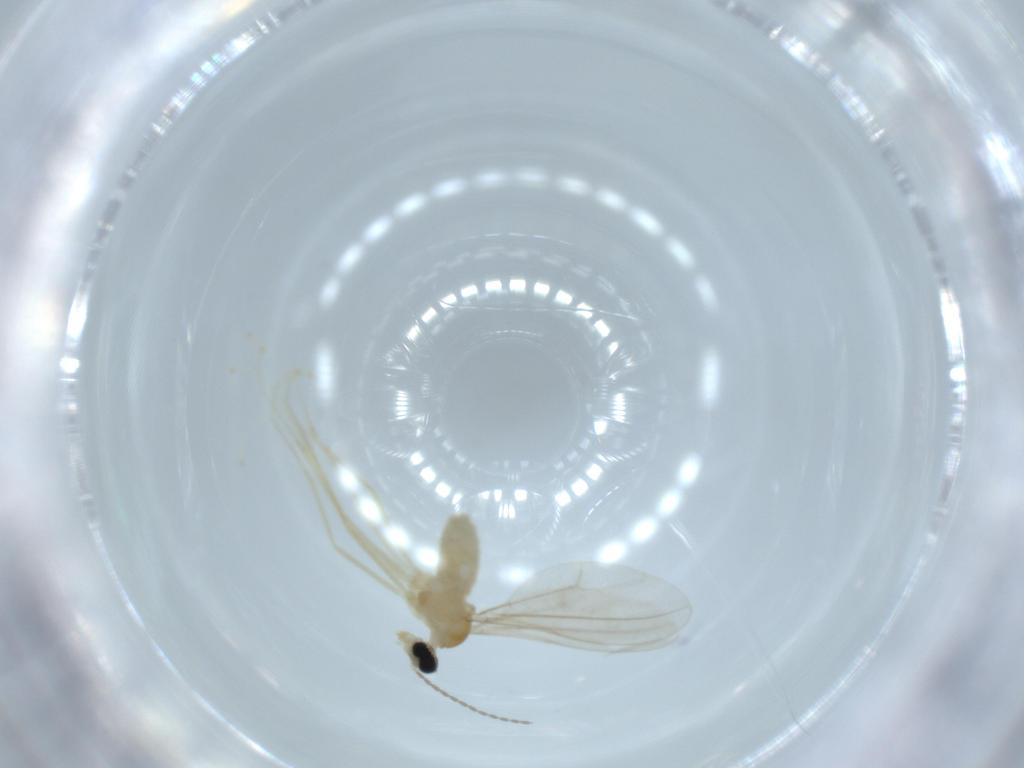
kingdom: Animalia
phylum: Arthropoda
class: Insecta
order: Diptera
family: Cecidomyiidae
